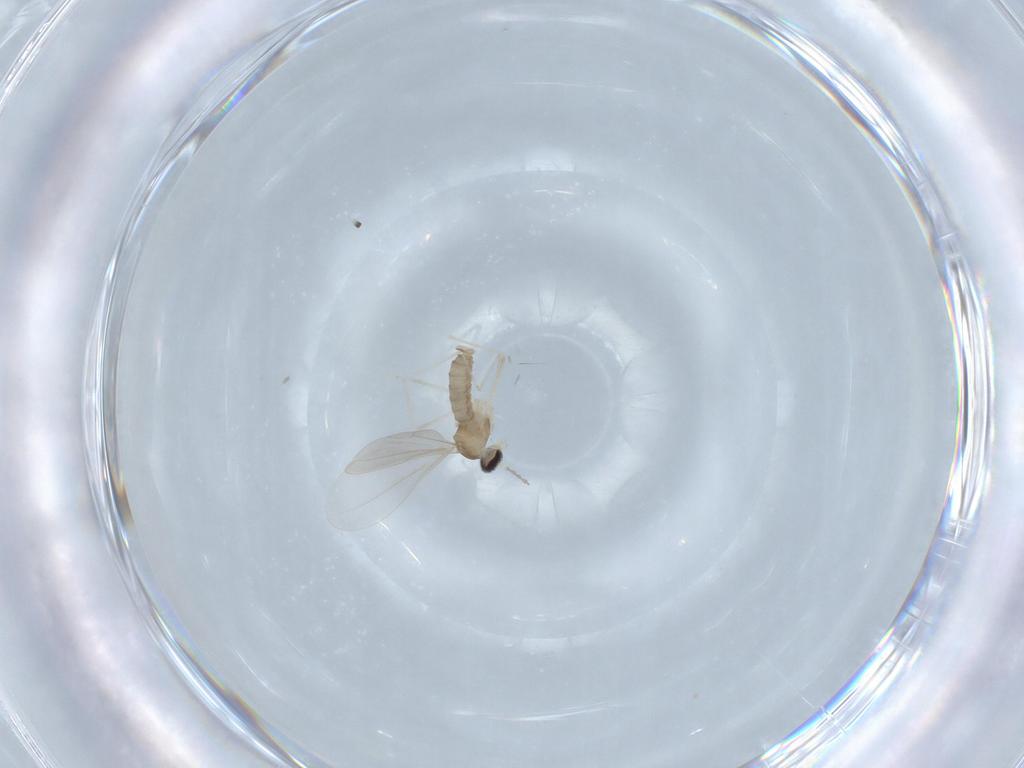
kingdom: Animalia
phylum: Arthropoda
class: Insecta
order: Diptera
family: Cecidomyiidae
